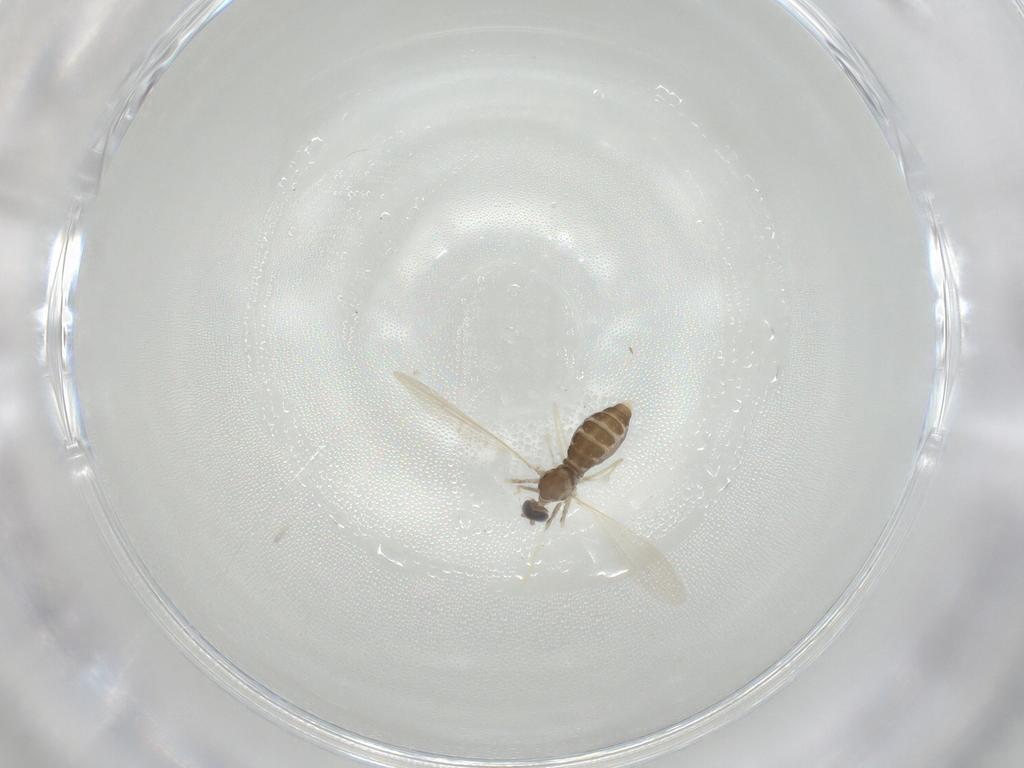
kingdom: Animalia
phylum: Arthropoda
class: Insecta
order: Diptera
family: Cecidomyiidae
